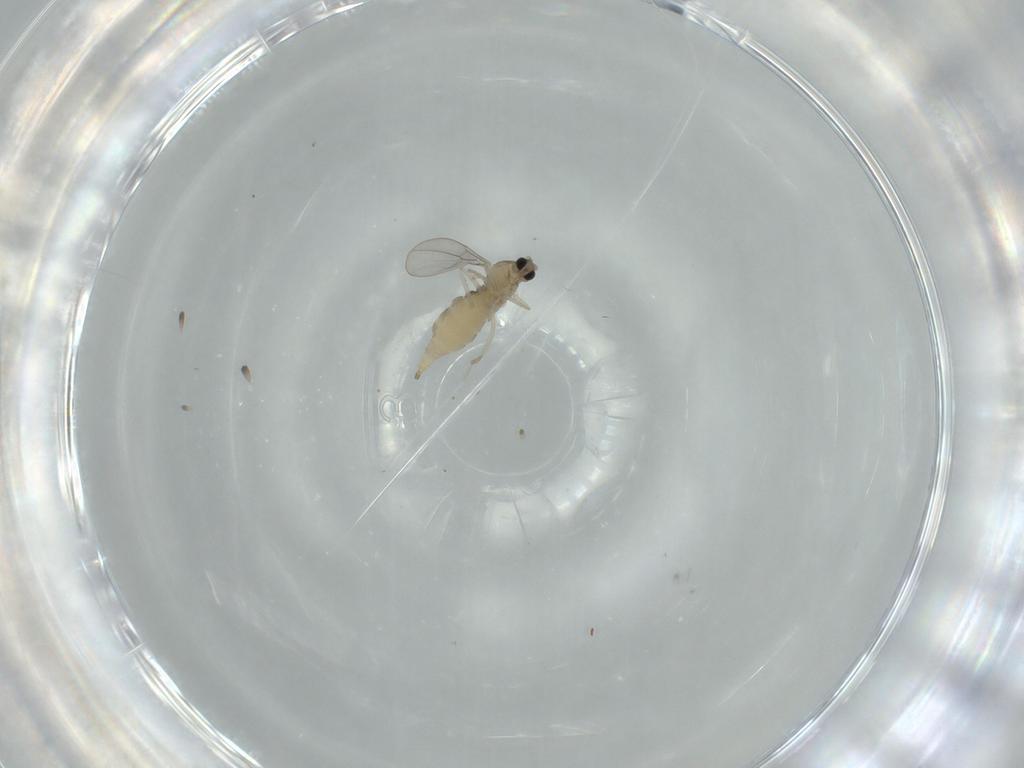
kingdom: Animalia
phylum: Arthropoda
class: Insecta
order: Diptera
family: Cecidomyiidae
